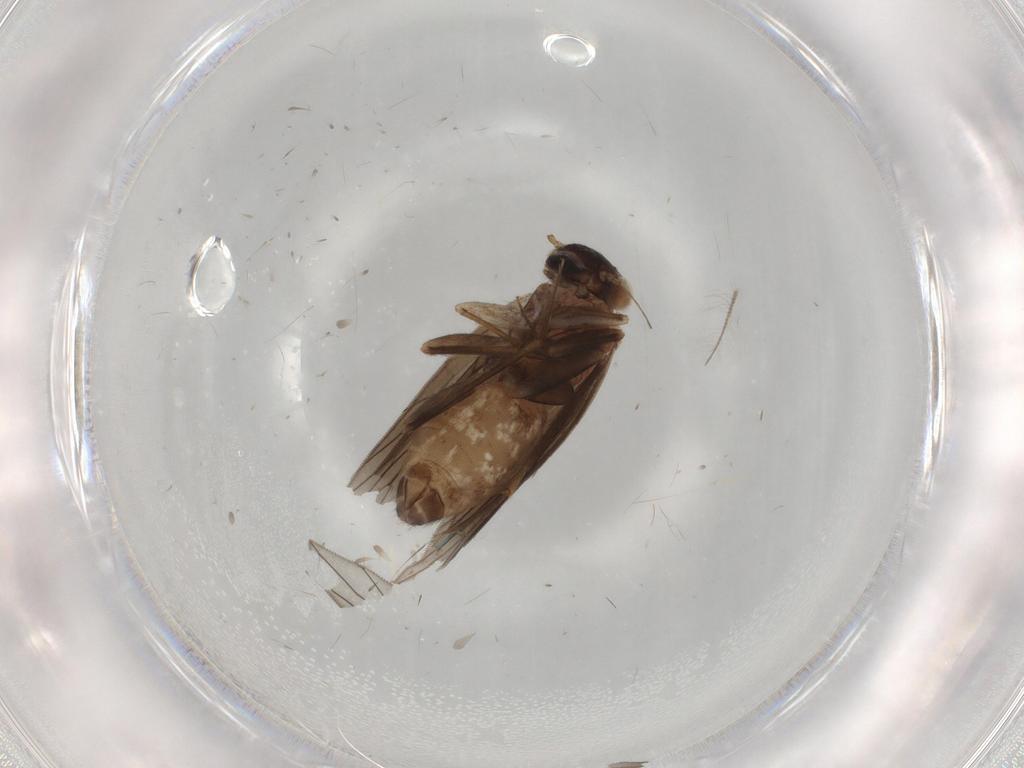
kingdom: Animalia
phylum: Arthropoda
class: Insecta
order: Psocodea
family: Lepidopsocidae
